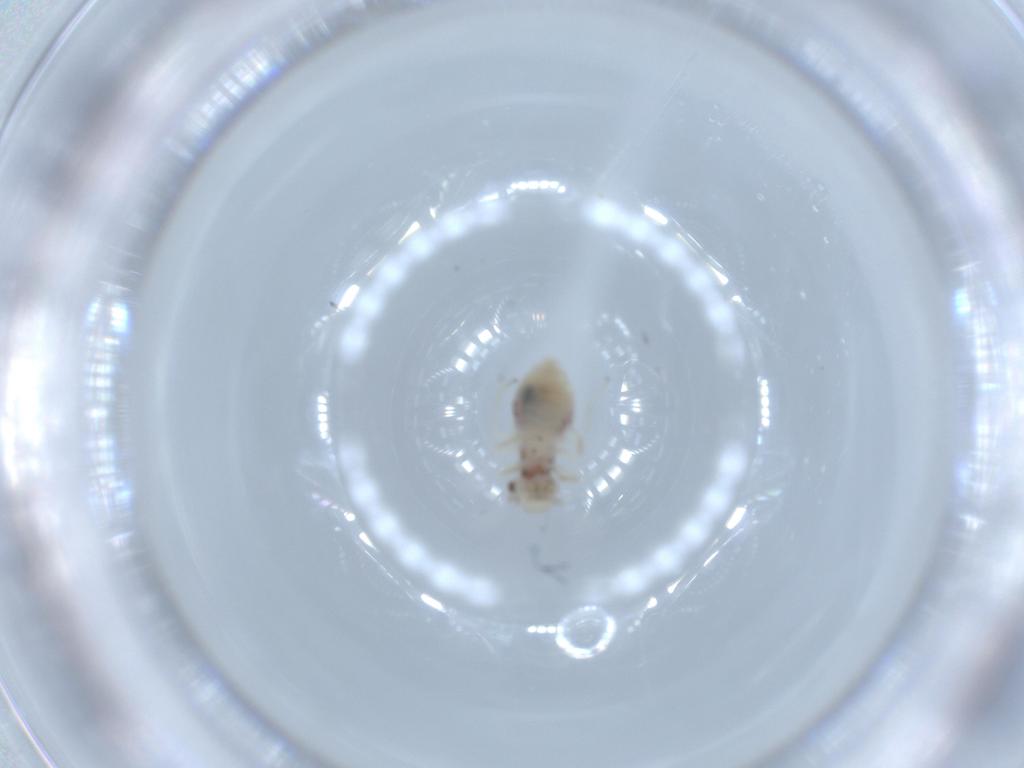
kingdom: Animalia
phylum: Arthropoda
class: Insecta
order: Psocodea
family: Caeciliusidae
